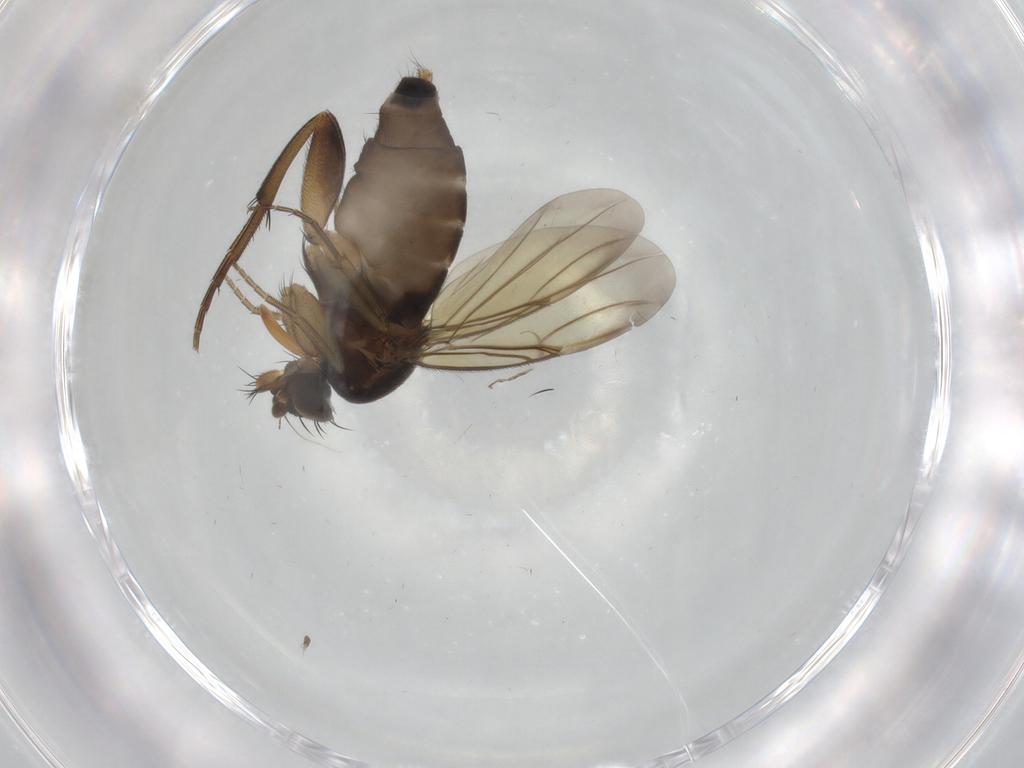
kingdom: Animalia
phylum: Arthropoda
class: Insecta
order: Diptera
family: Phoridae
